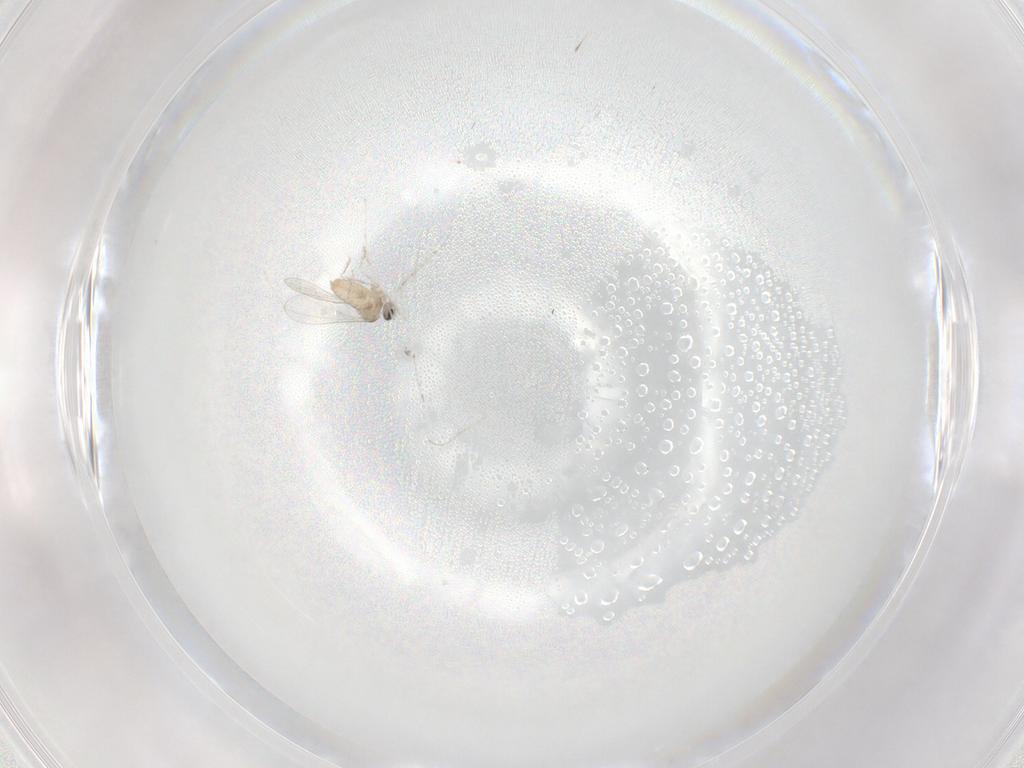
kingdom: Animalia
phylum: Arthropoda
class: Insecta
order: Diptera
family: Cecidomyiidae
